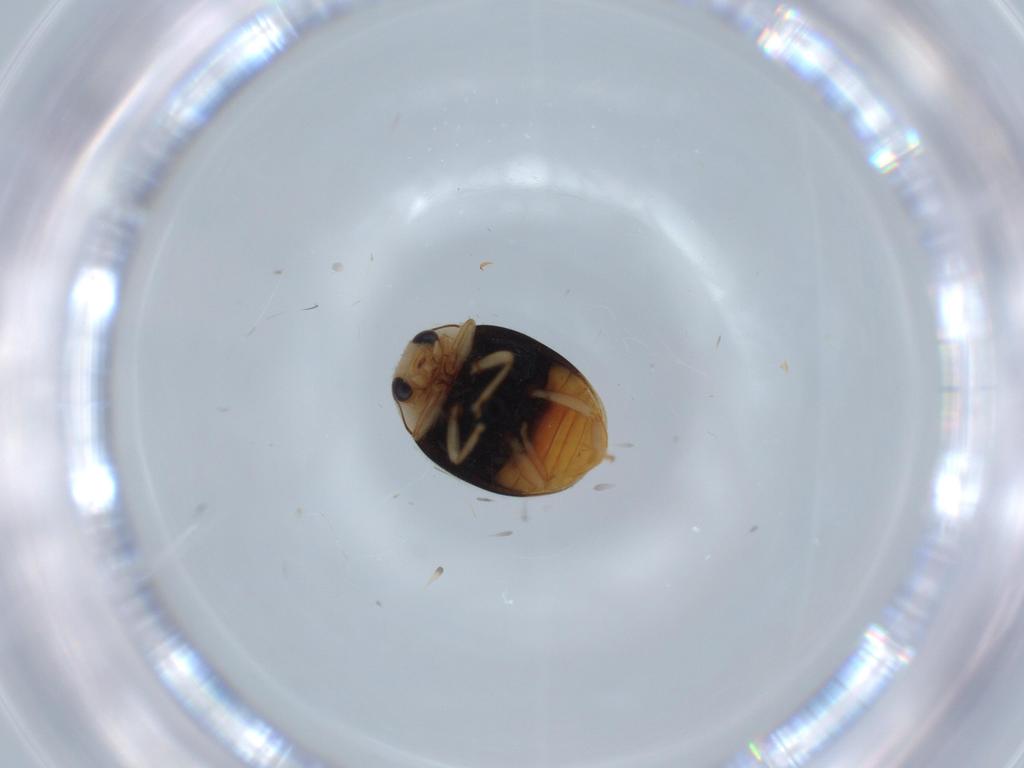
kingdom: Animalia
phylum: Arthropoda
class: Insecta
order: Coleoptera
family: Coccinellidae
